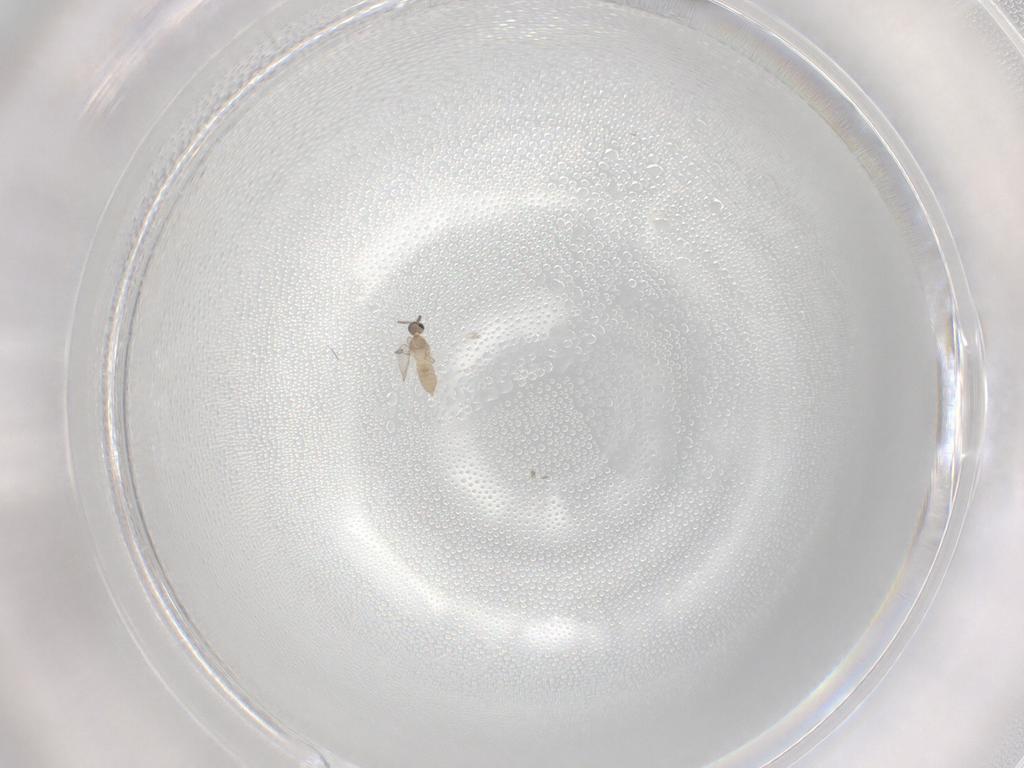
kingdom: Animalia
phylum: Arthropoda
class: Insecta
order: Diptera
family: Cecidomyiidae
